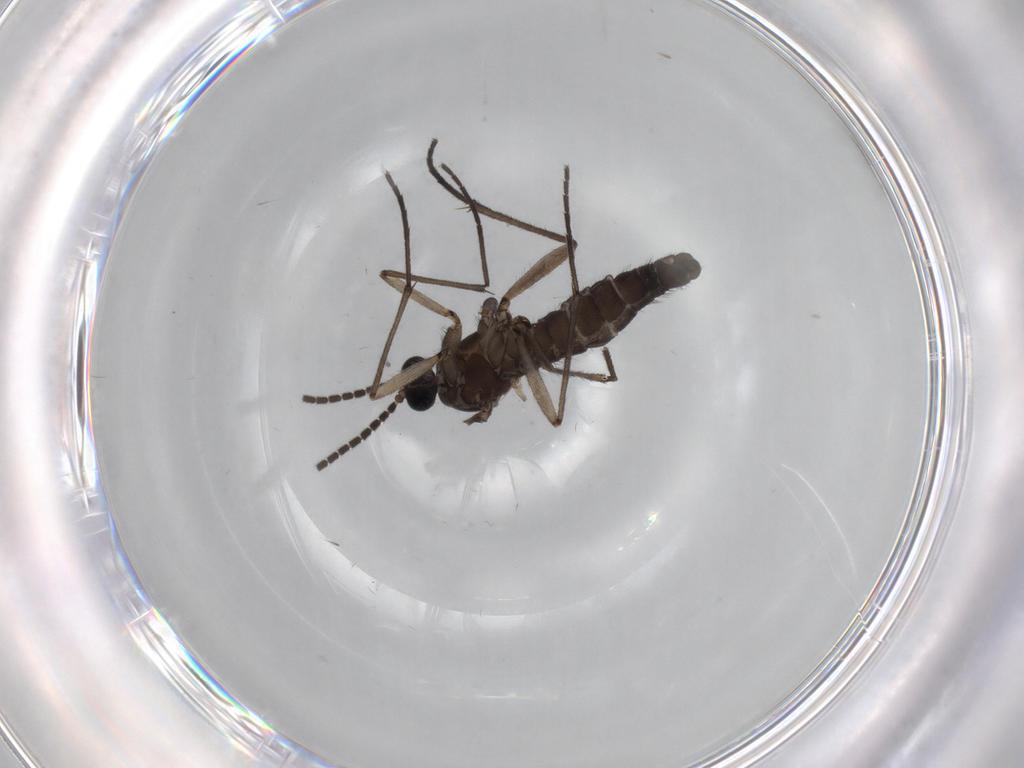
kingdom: Animalia
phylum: Arthropoda
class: Insecta
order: Diptera
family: Sciaridae
